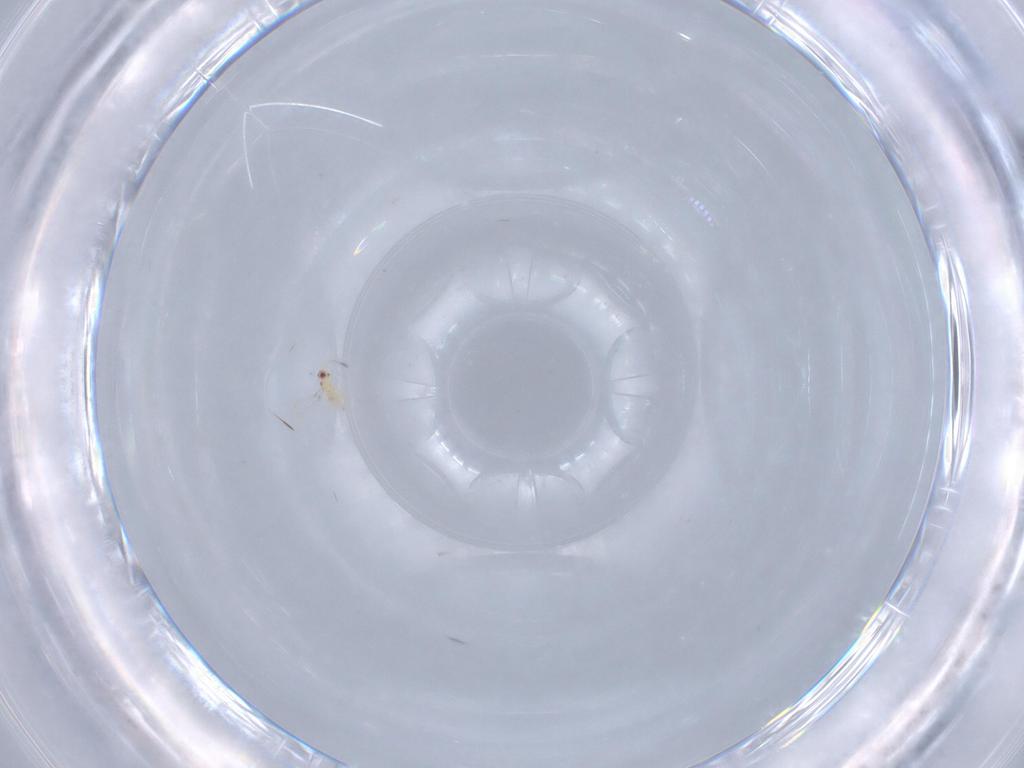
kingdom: Animalia
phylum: Arthropoda
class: Insecta
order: Hymenoptera
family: Mymaridae
